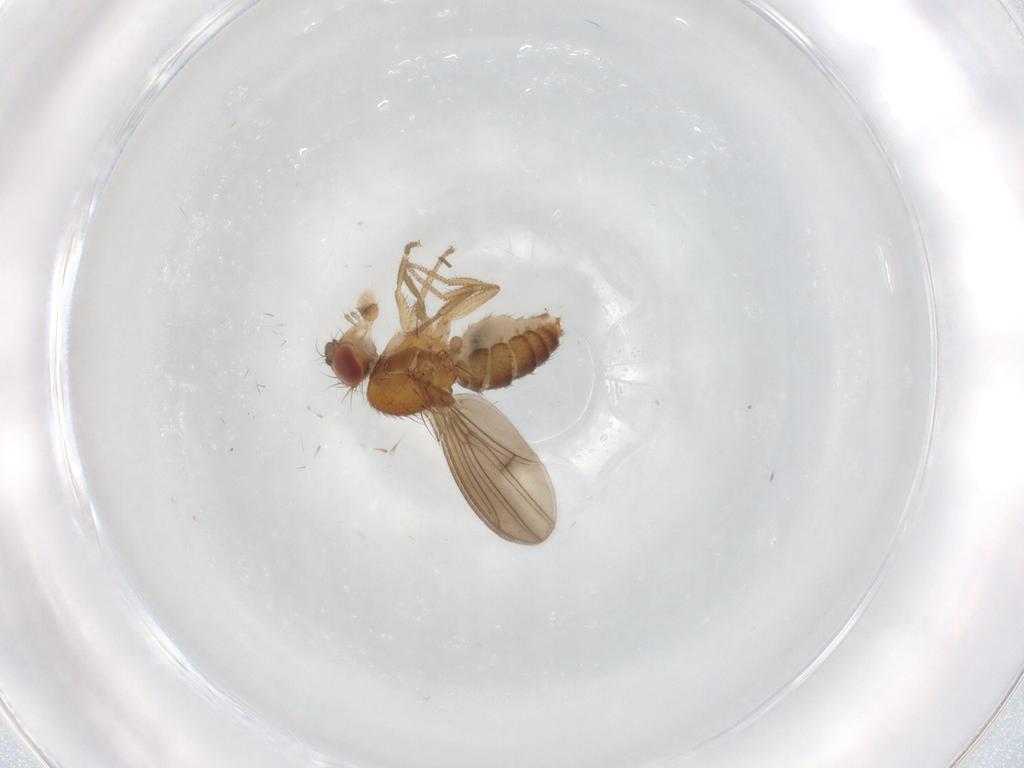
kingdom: Animalia
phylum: Arthropoda
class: Insecta
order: Diptera
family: Drosophilidae
